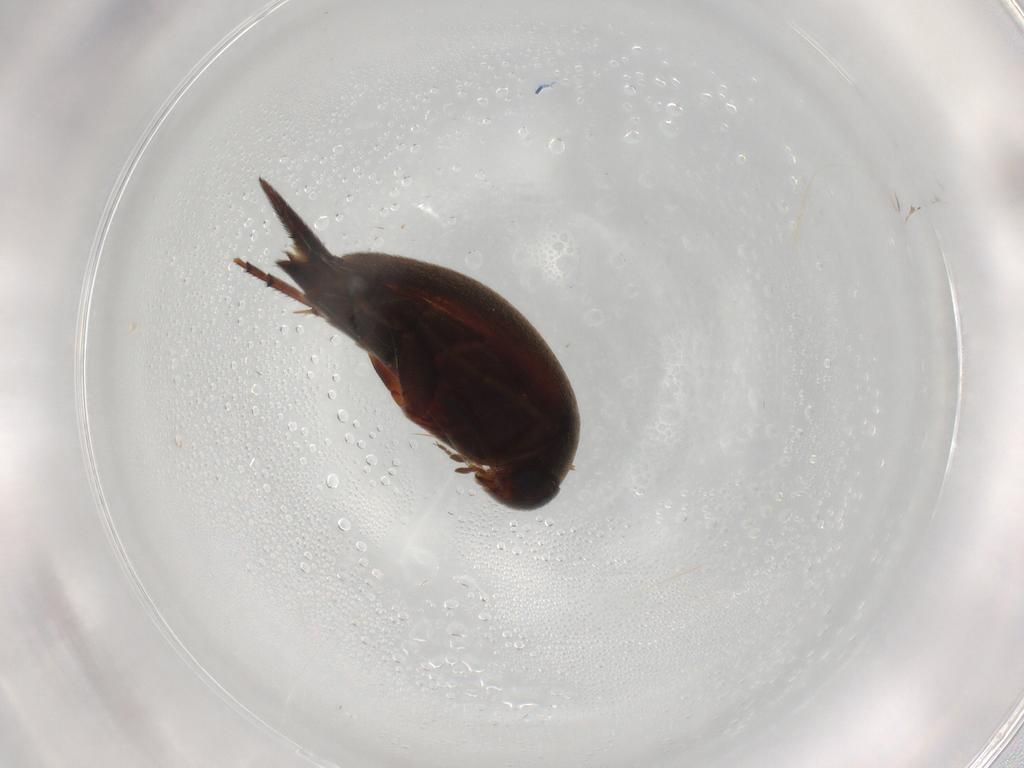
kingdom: Animalia
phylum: Arthropoda
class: Insecta
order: Coleoptera
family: Mordellidae
